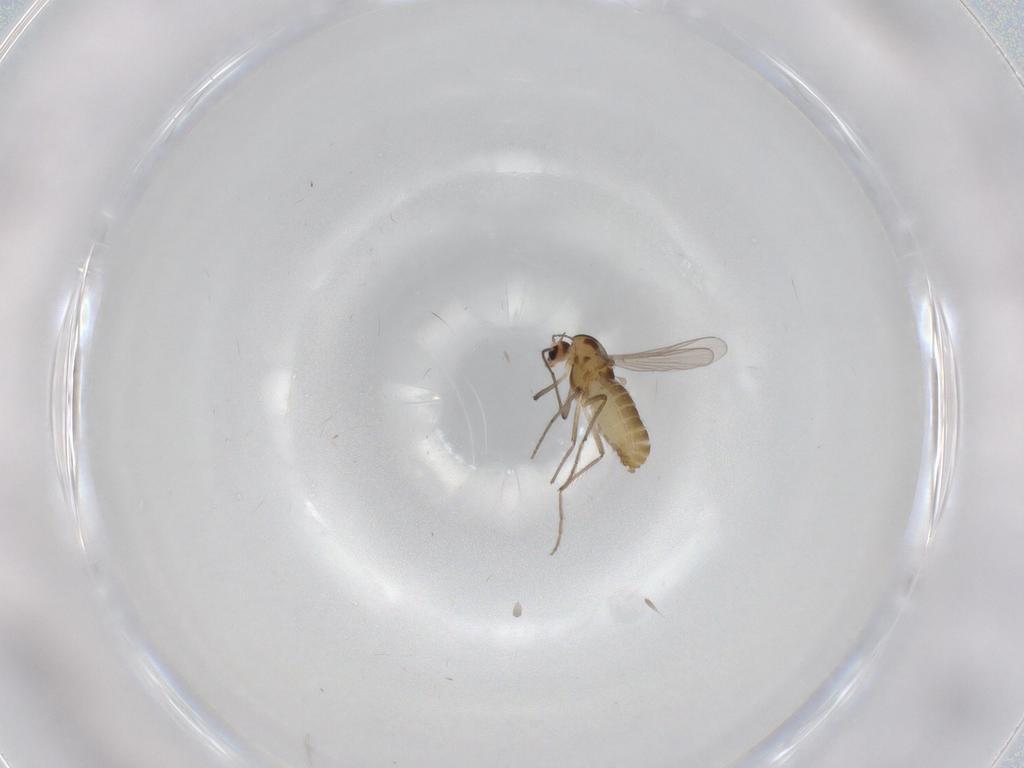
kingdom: Animalia
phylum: Arthropoda
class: Insecta
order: Diptera
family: Chironomidae
